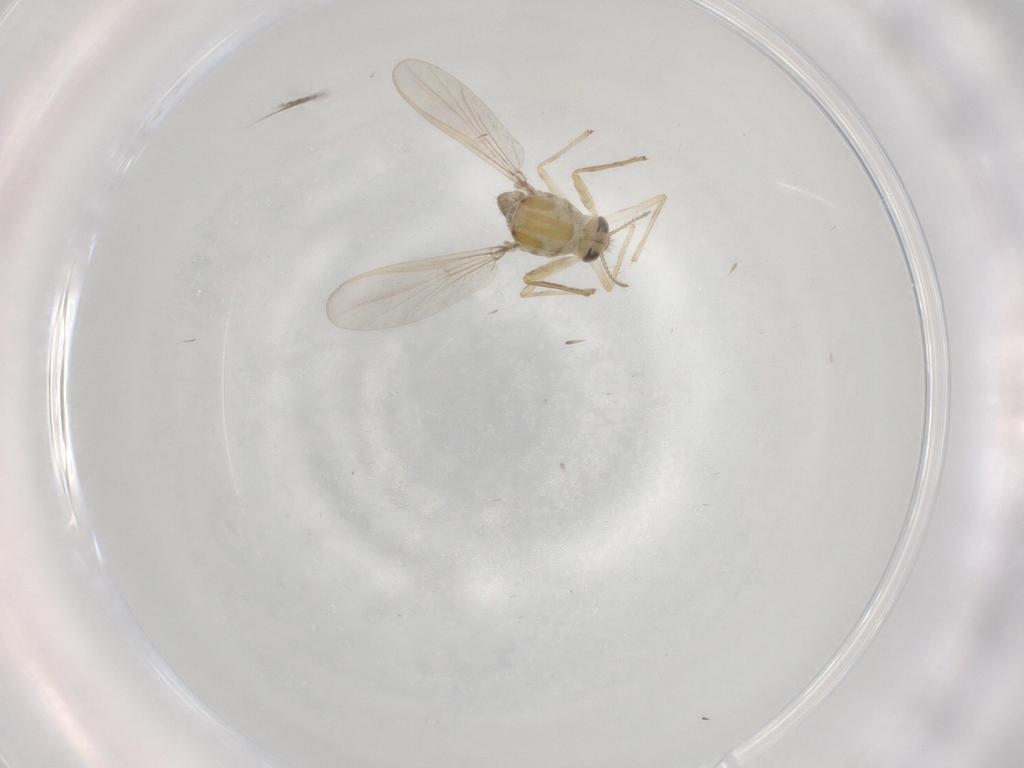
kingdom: Animalia
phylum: Arthropoda
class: Insecta
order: Diptera
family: Chironomidae
